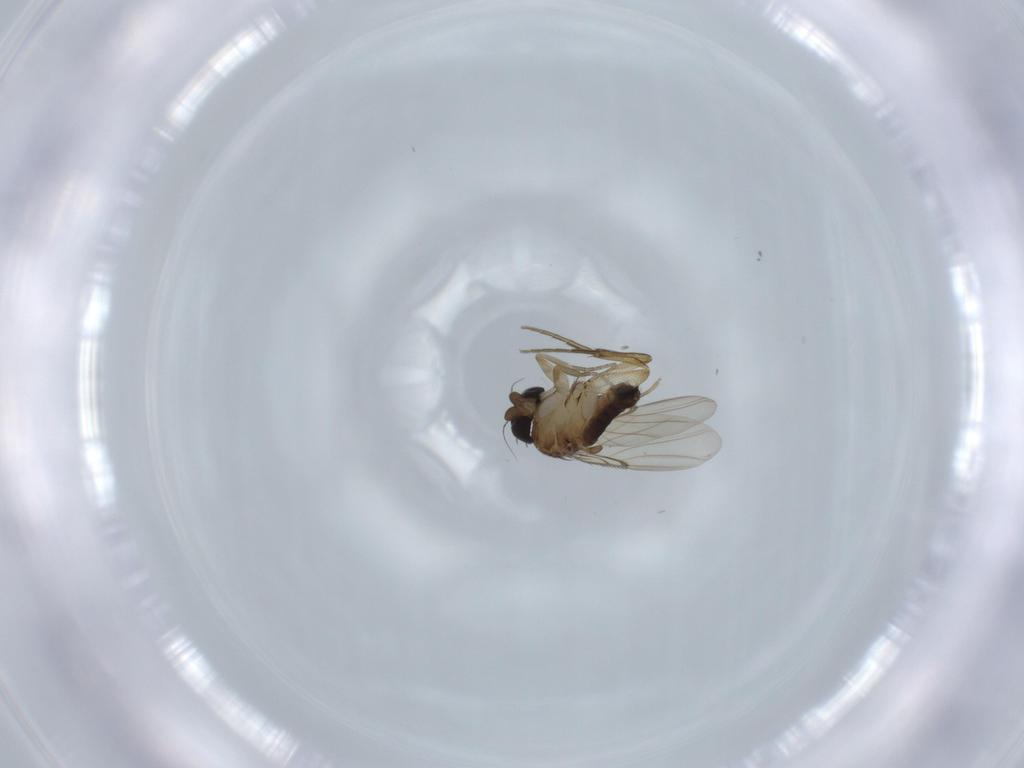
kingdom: Animalia
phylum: Arthropoda
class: Insecta
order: Diptera
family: Phoridae
